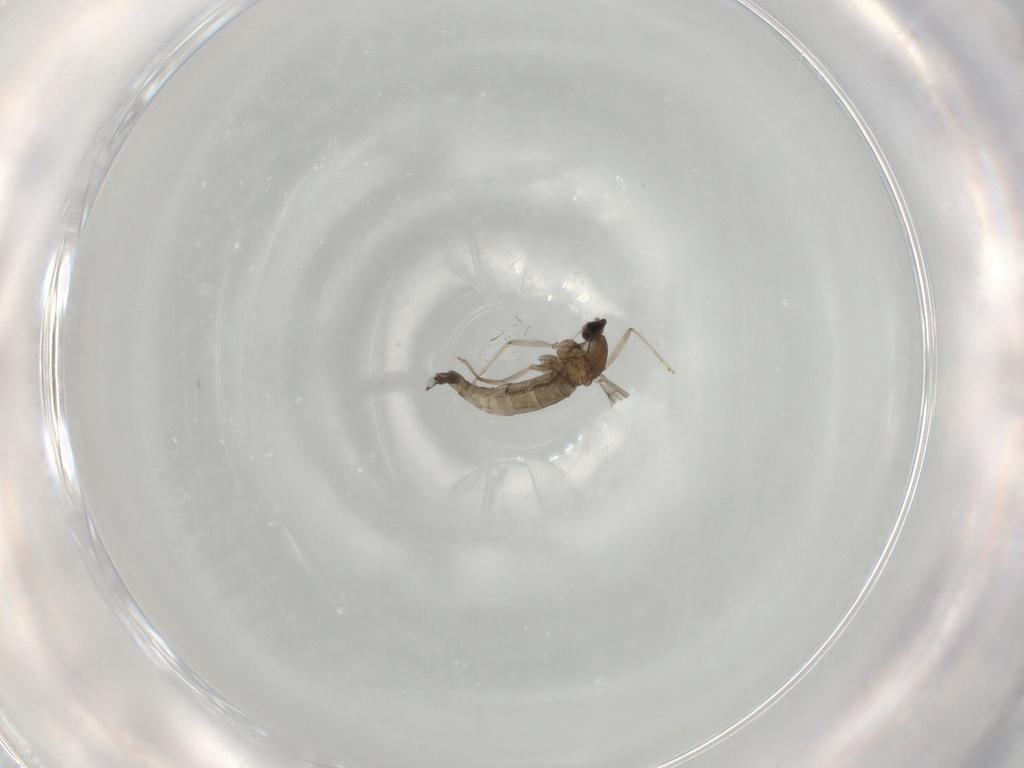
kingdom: Animalia
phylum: Arthropoda
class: Insecta
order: Diptera
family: Cecidomyiidae
